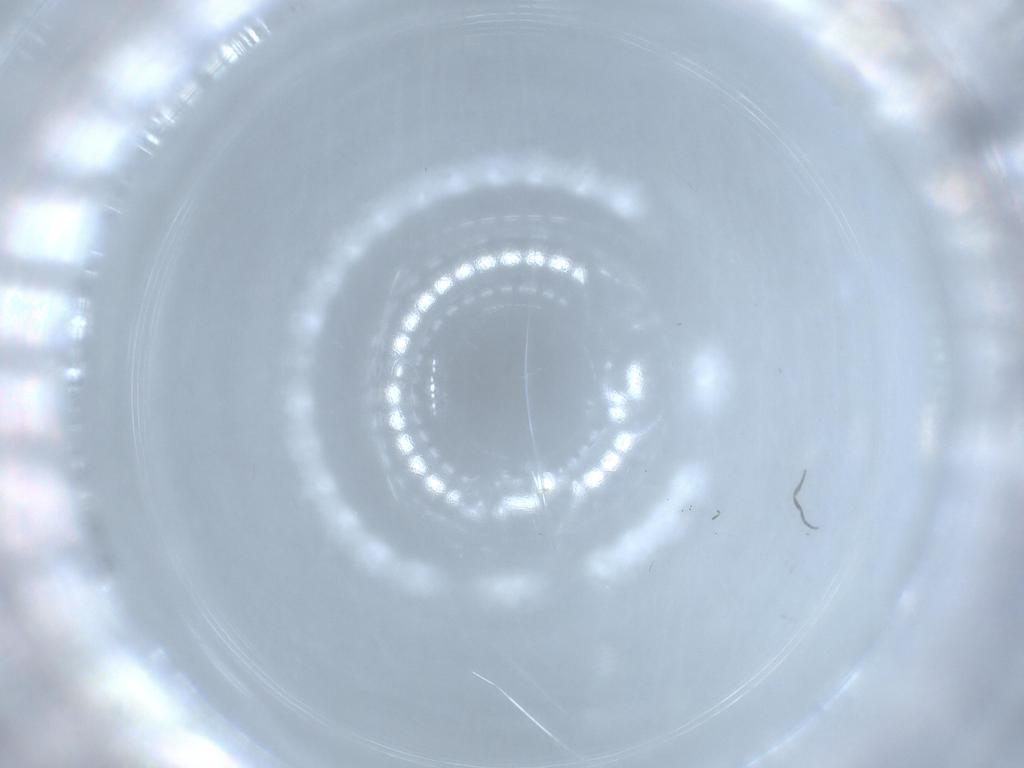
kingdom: Animalia
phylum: Arthropoda
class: Insecta
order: Diptera
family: Phoridae
